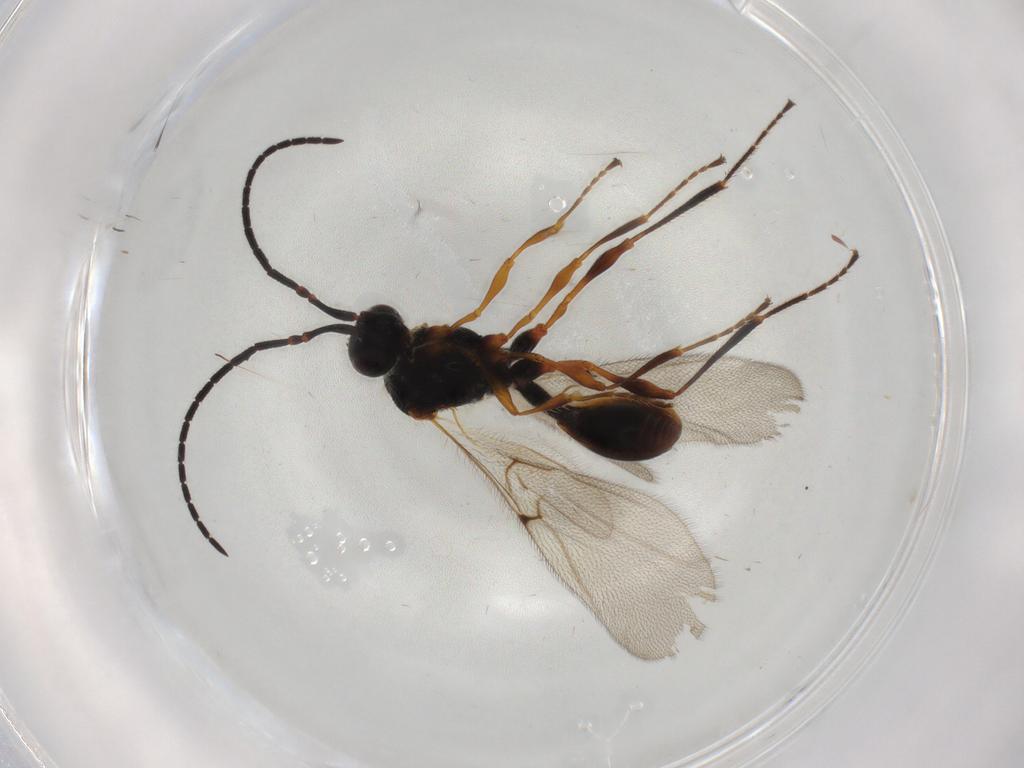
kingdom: Animalia
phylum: Arthropoda
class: Insecta
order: Hymenoptera
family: Diapriidae
